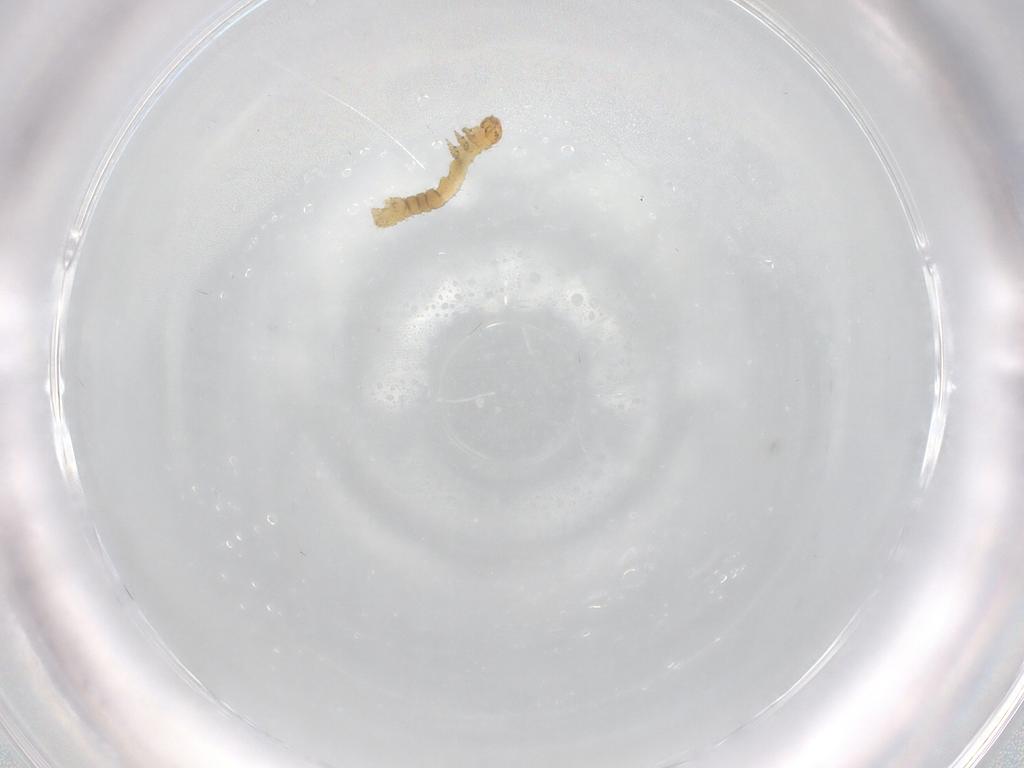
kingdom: Animalia
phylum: Arthropoda
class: Insecta
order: Lepidoptera
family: Geometridae
